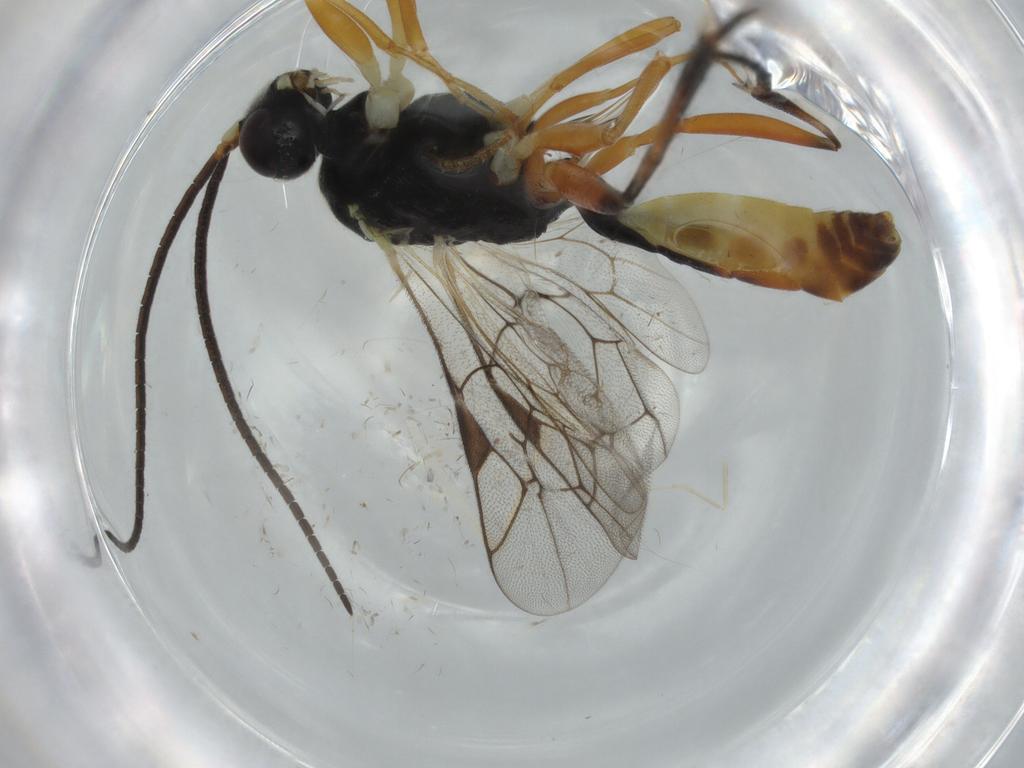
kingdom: Animalia
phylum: Arthropoda
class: Insecta
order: Hymenoptera
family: Ichneumonidae
